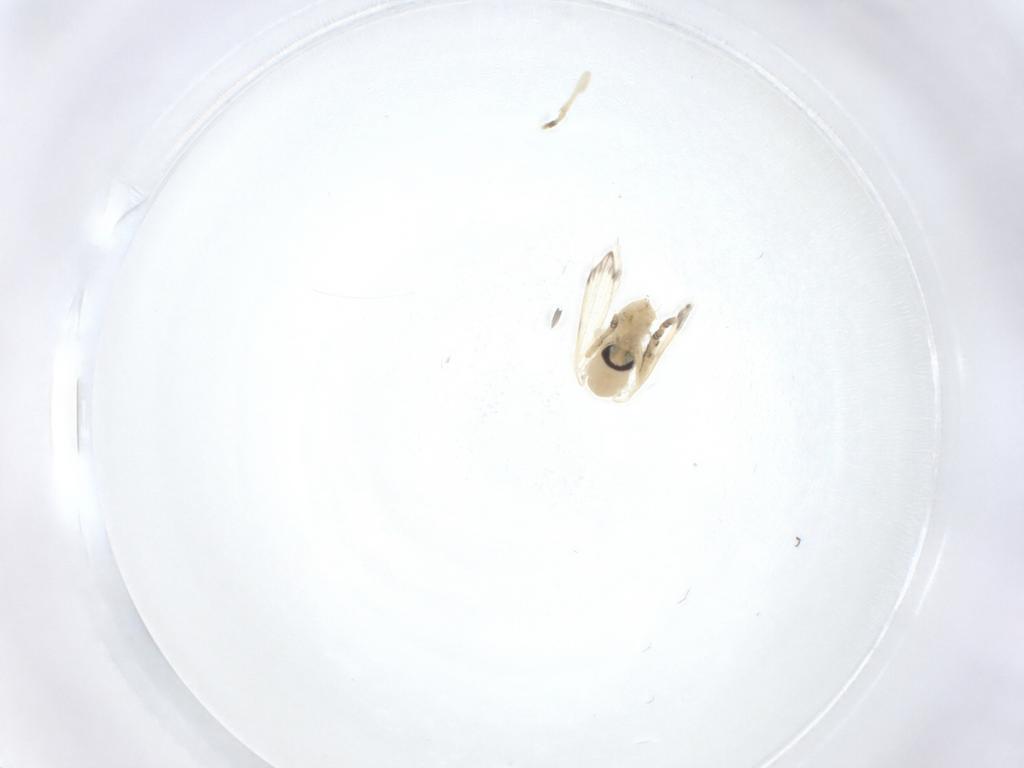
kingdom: Animalia
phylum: Arthropoda
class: Insecta
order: Diptera
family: Psychodidae
